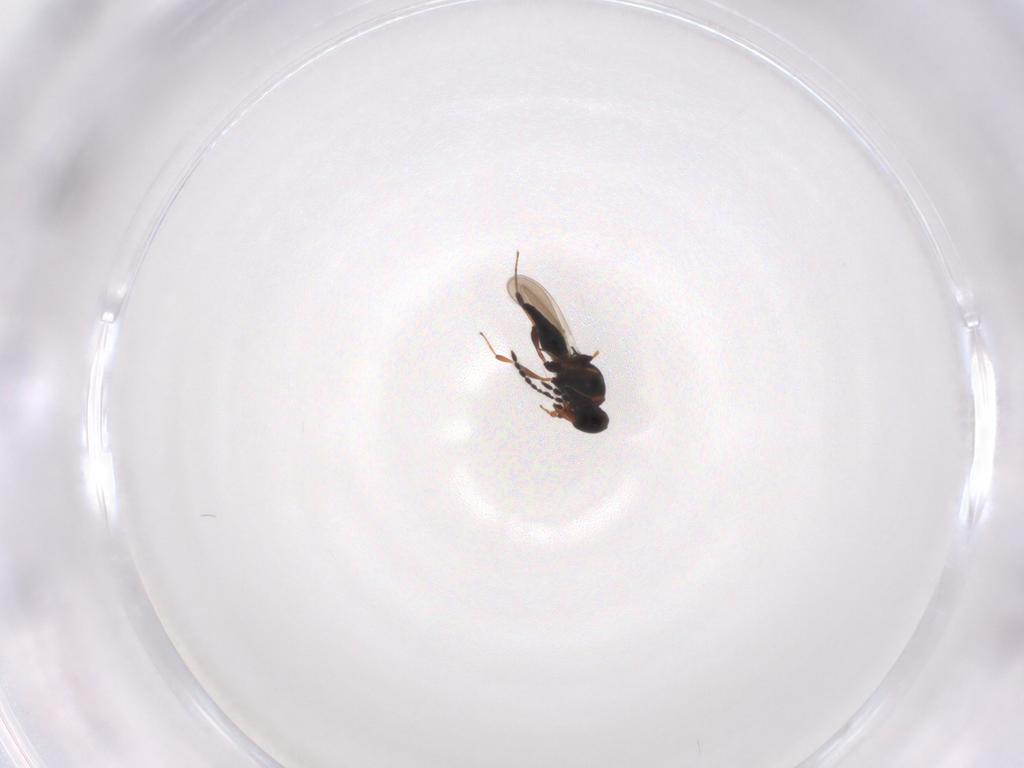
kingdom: Animalia
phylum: Arthropoda
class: Insecta
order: Hymenoptera
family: Platygastridae
